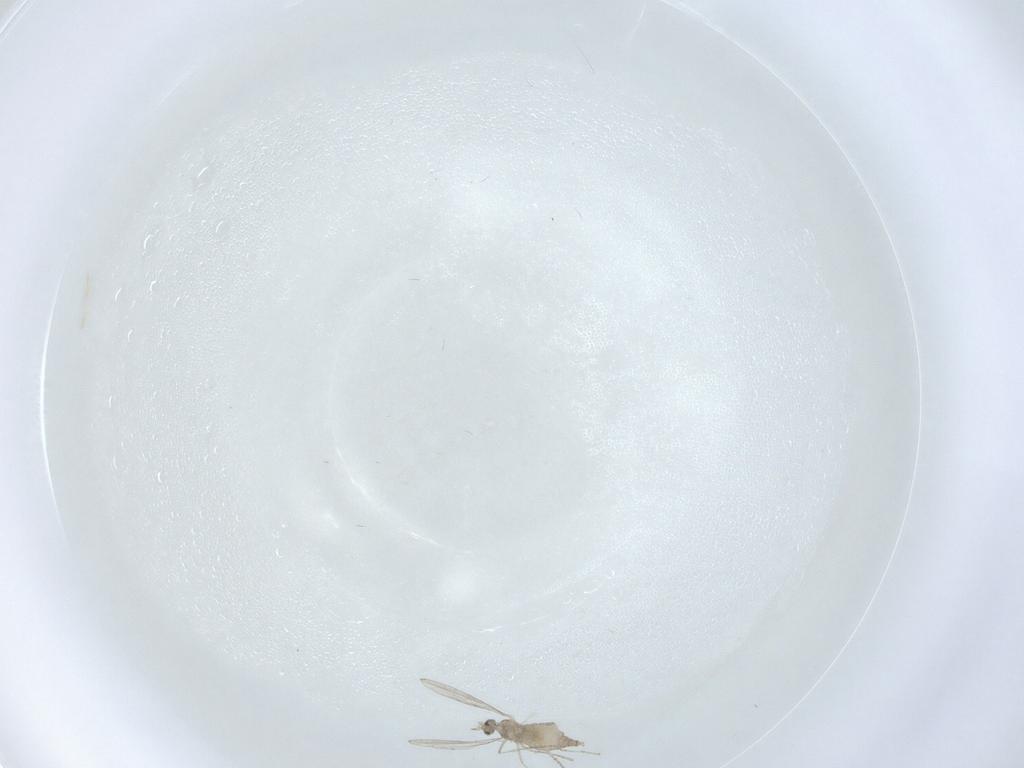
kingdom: Animalia
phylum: Arthropoda
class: Insecta
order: Diptera
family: Cecidomyiidae
